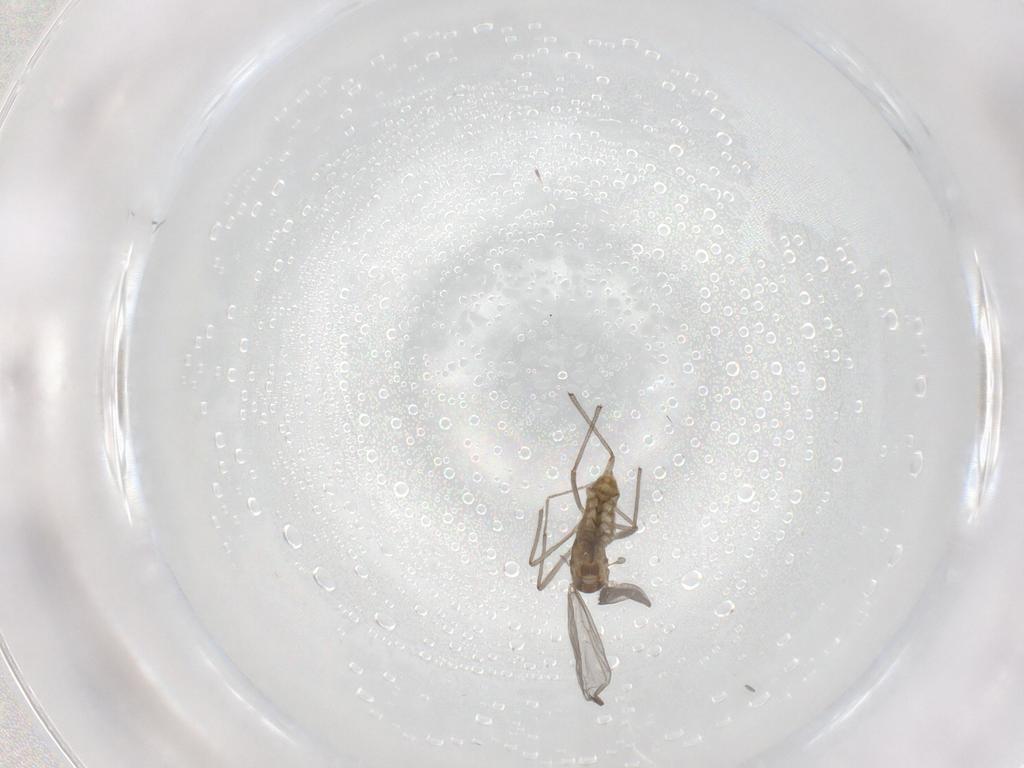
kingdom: Animalia
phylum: Arthropoda
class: Insecta
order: Diptera
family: Chironomidae
